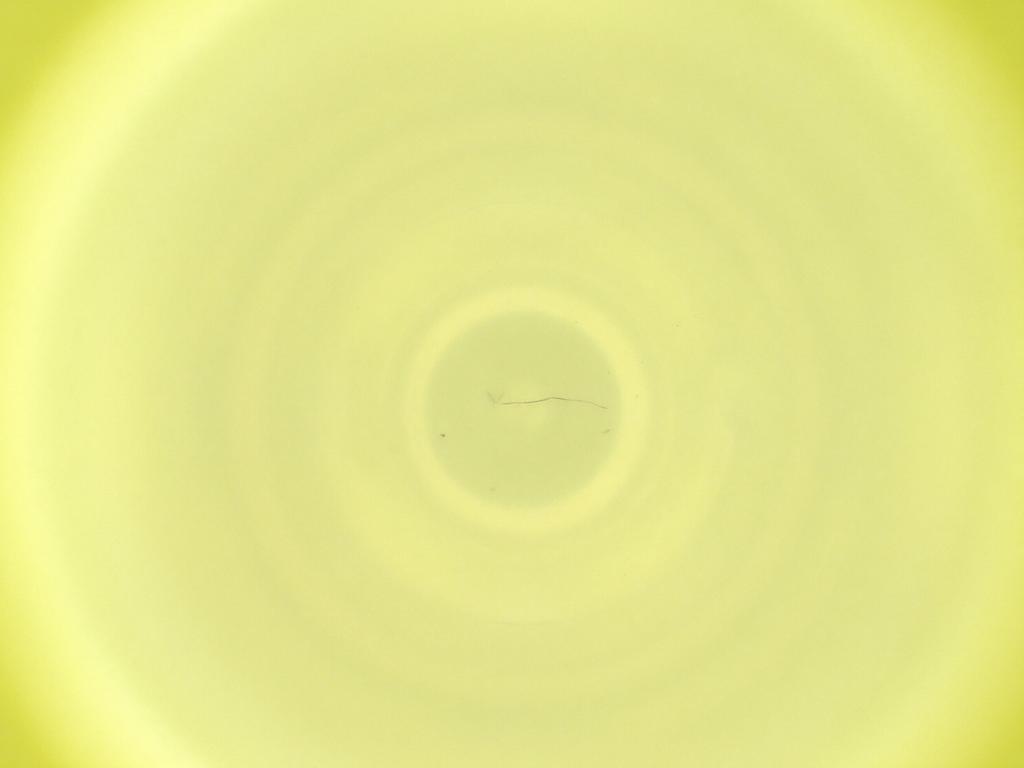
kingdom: Animalia
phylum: Arthropoda
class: Insecta
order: Diptera
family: Cecidomyiidae
